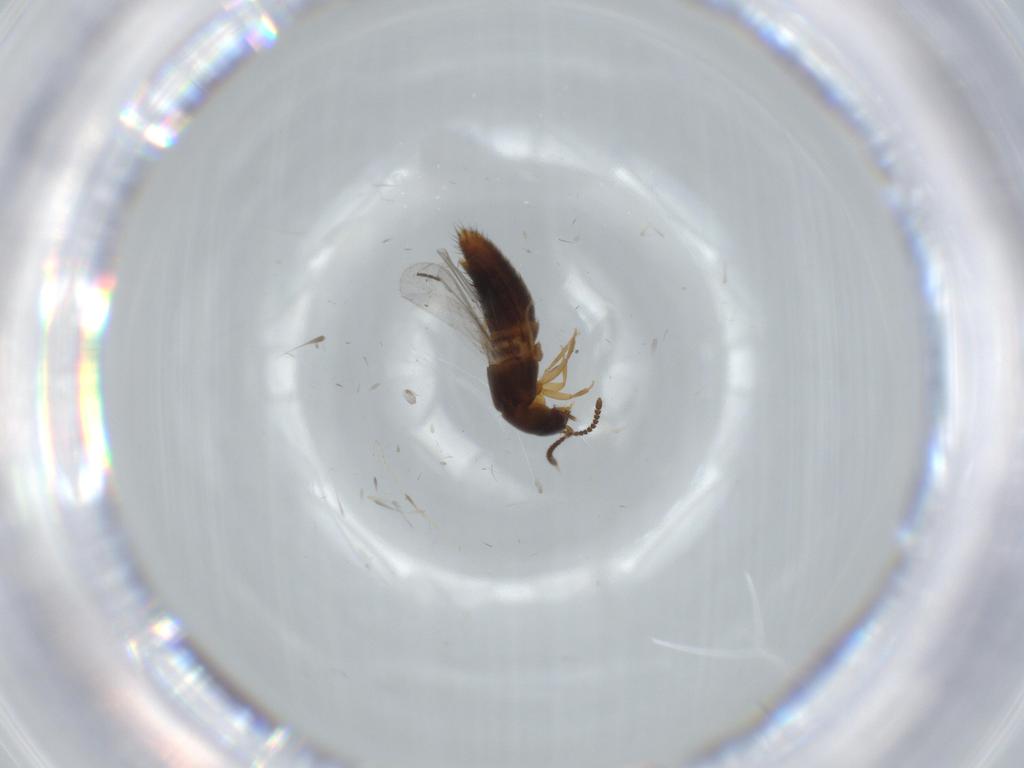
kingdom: Animalia
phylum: Arthropoda
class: Insecta
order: Coleoptera
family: Staphylinidae
